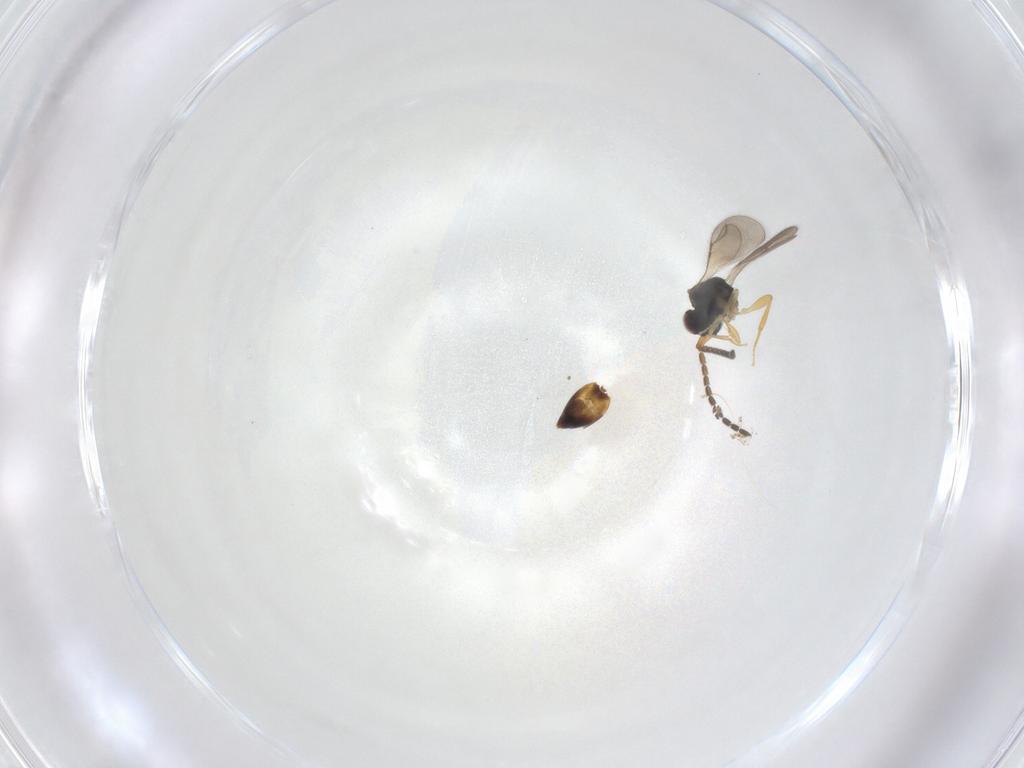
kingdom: Animalia
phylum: Arthropoda
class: Collembola
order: Entomobryomorpha
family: Entomobryidae
